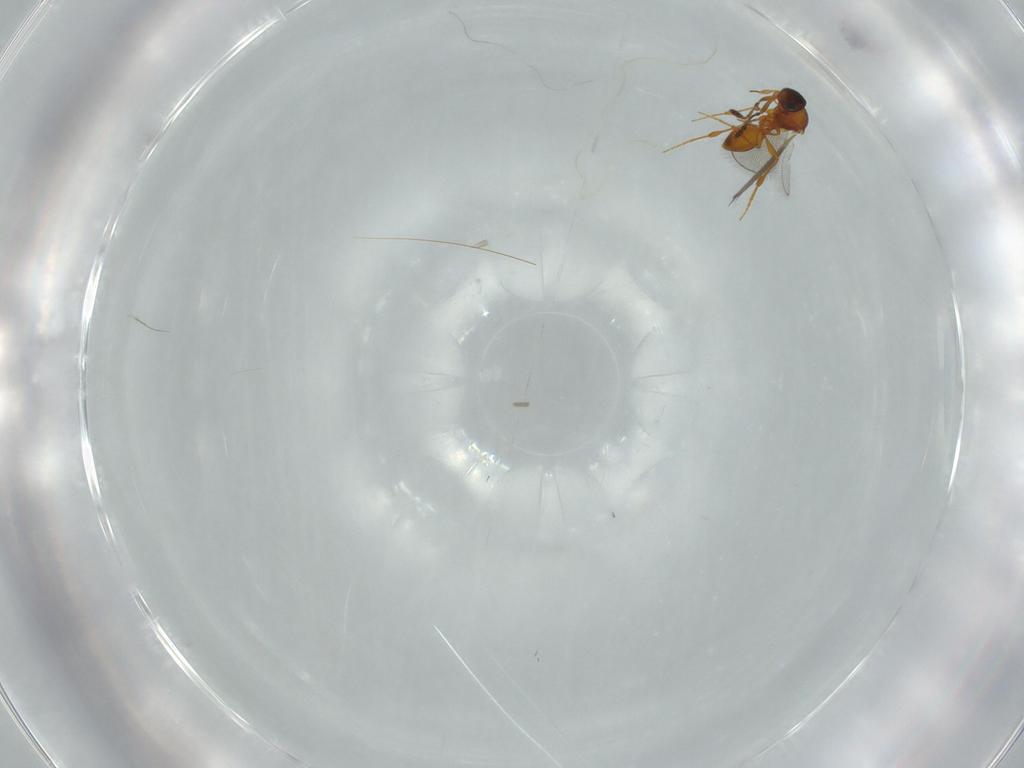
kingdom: Animalia
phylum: Arthropoda
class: Insecta
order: Hymenoptera
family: Platygastridae
